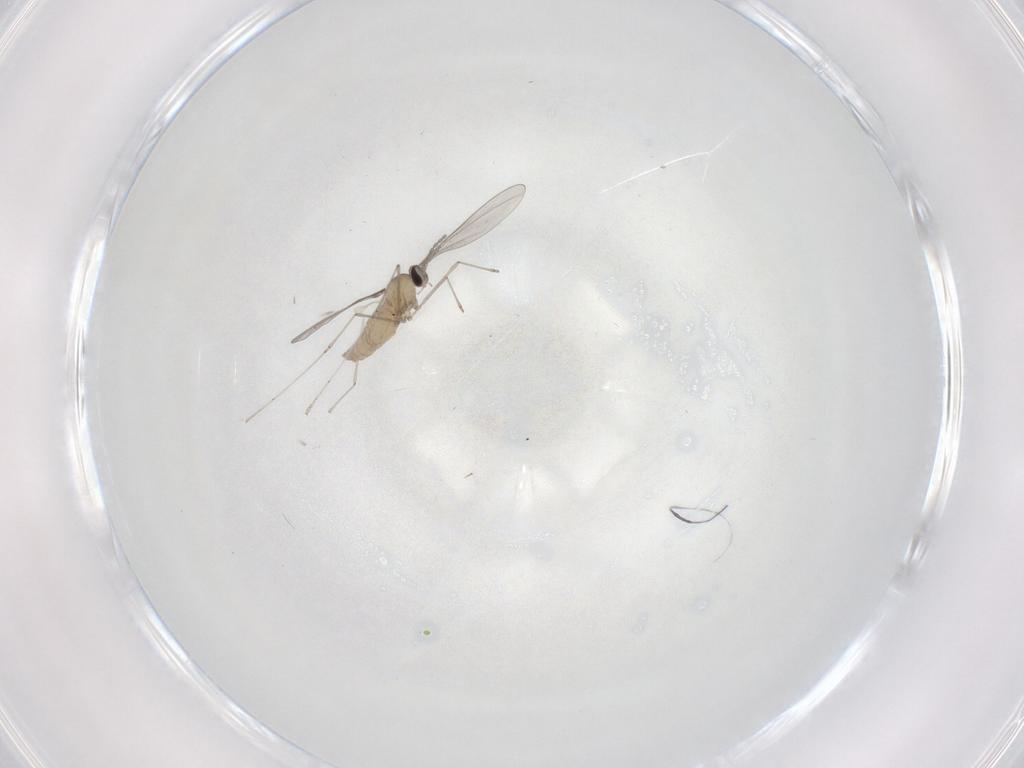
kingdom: Animalia
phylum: Arthropoda
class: Insecta
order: Diptera
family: Cecidomyiidae
